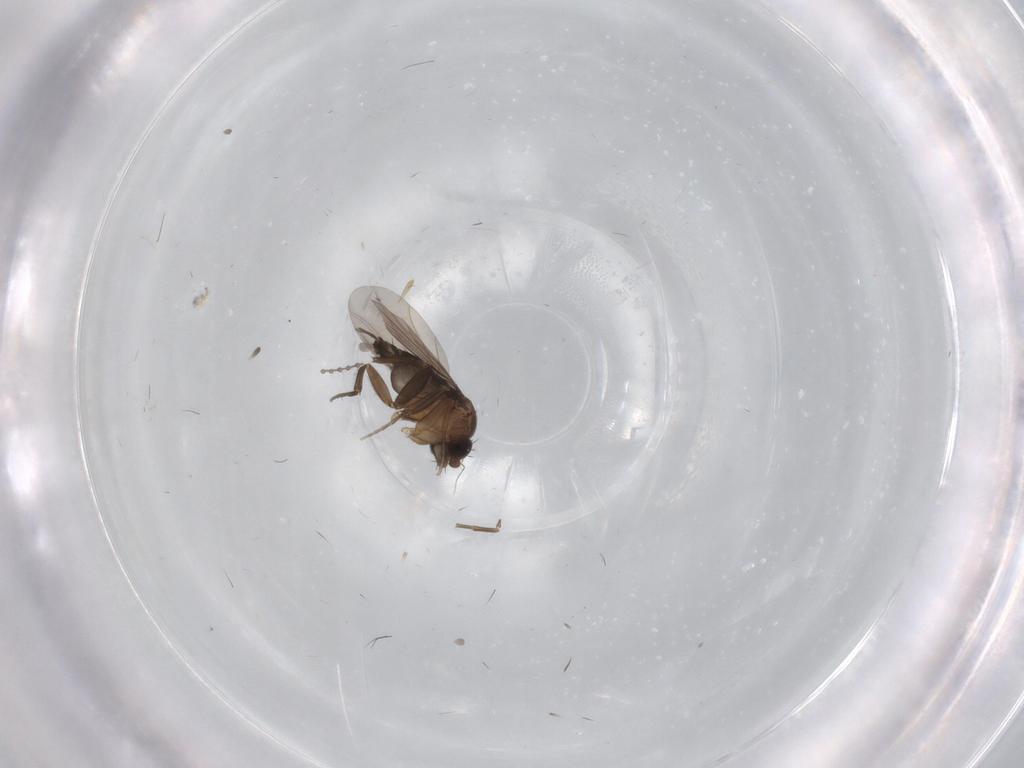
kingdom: Animalia
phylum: Arthropoda
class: Insecta
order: Diptera
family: Phoridae
